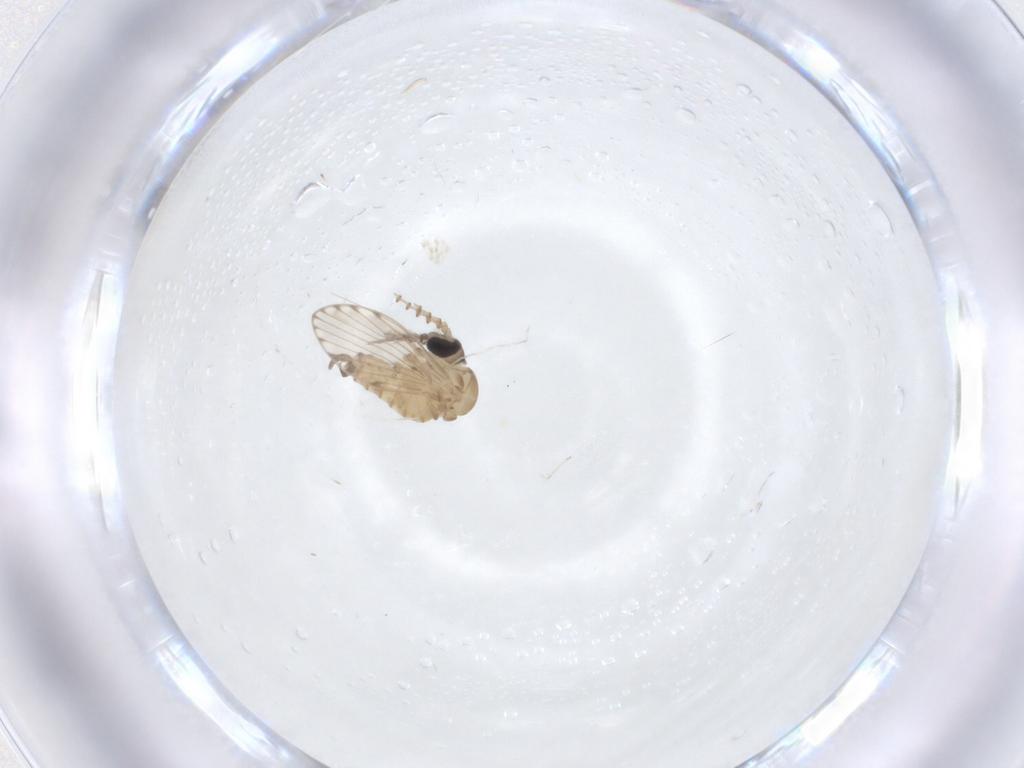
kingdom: Animalia
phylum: Arthropoda
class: Insecta
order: Diptera
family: Psychodidae
